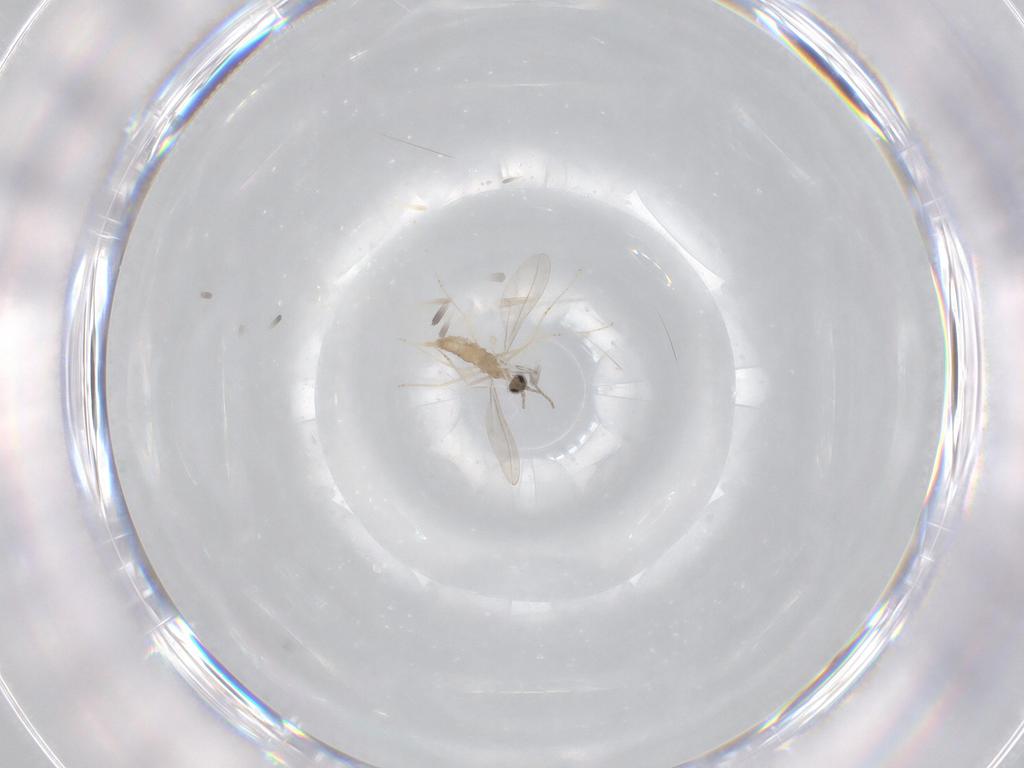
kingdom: Animalia
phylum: Arthropoda
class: Insecta
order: Diptera
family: Cecidomyiidae
